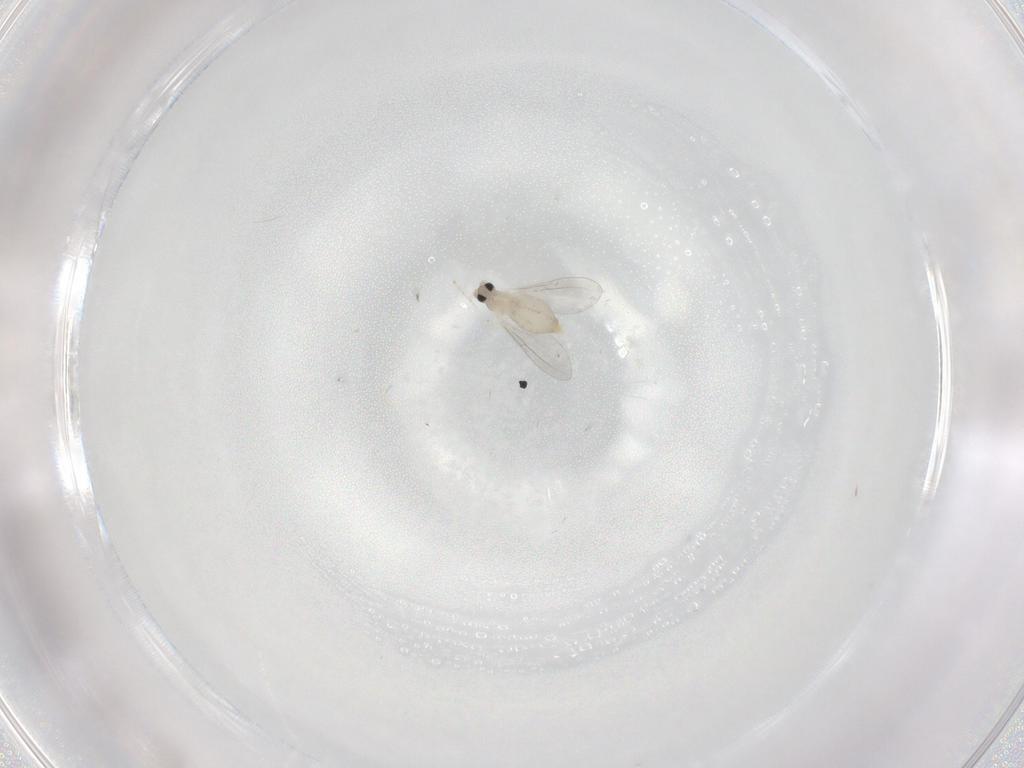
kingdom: Animalia
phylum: Arthropoda
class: Insecta
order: Diptera
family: Cecidomyiidae
